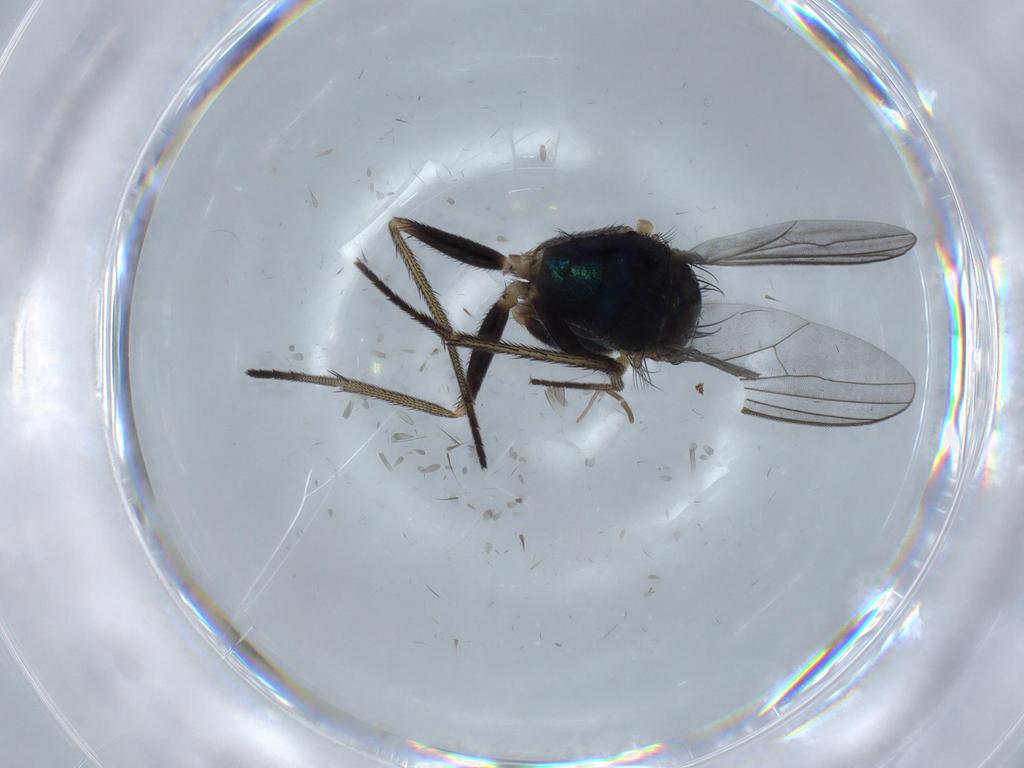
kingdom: Animalia
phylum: Arthropoda
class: Insecta
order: Diptera
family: Dolichopodidae
